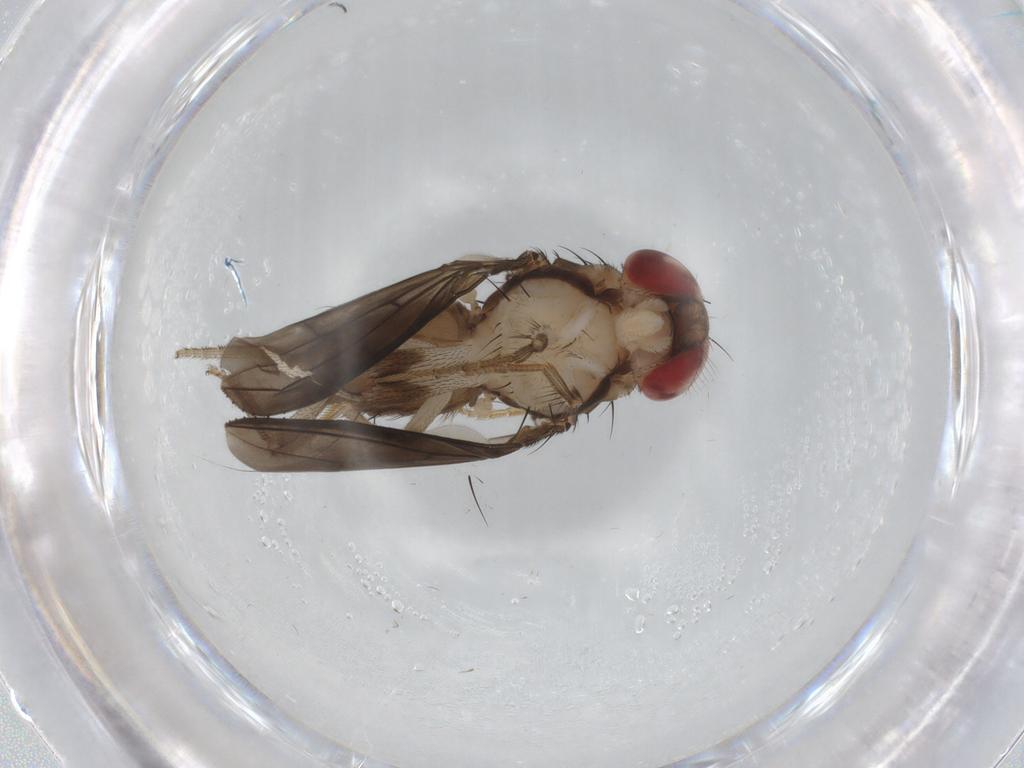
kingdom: Animalia
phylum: Arthropoda
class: Insecta
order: Diptera
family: Drosophilidae
